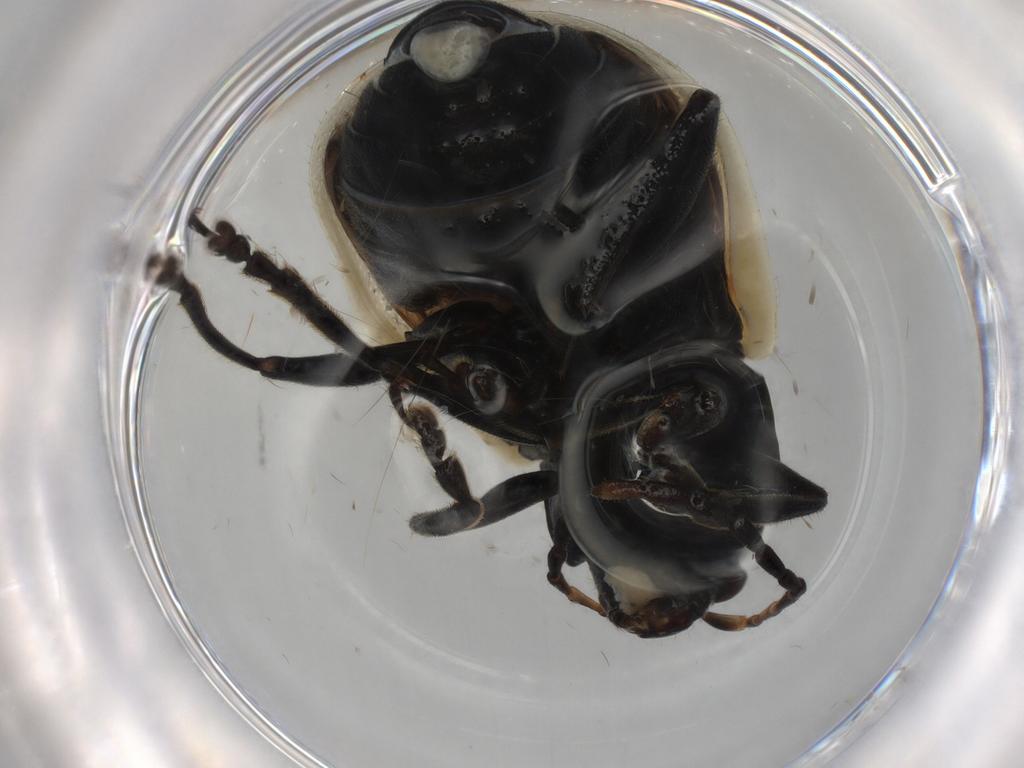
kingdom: Animalia
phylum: Arthropoda
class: Insecta
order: Coleoptera
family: Chrysomelidae
